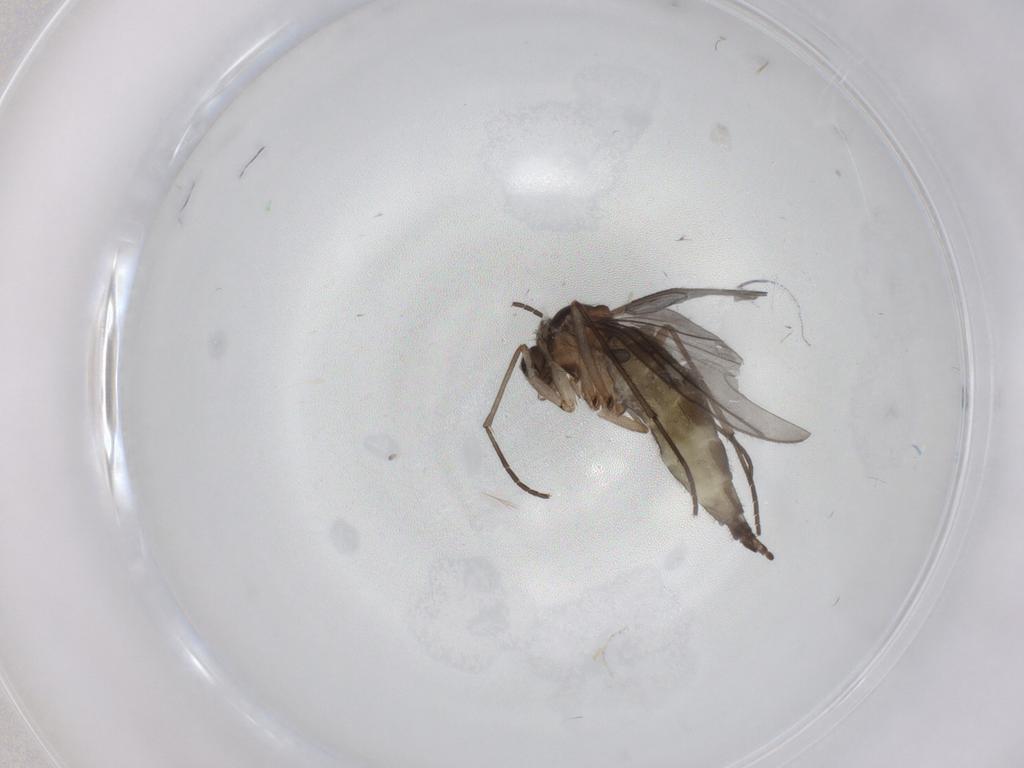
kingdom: Animalia
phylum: Arthropoda
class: Insecta
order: Diptera
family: Cecidomyiidae
